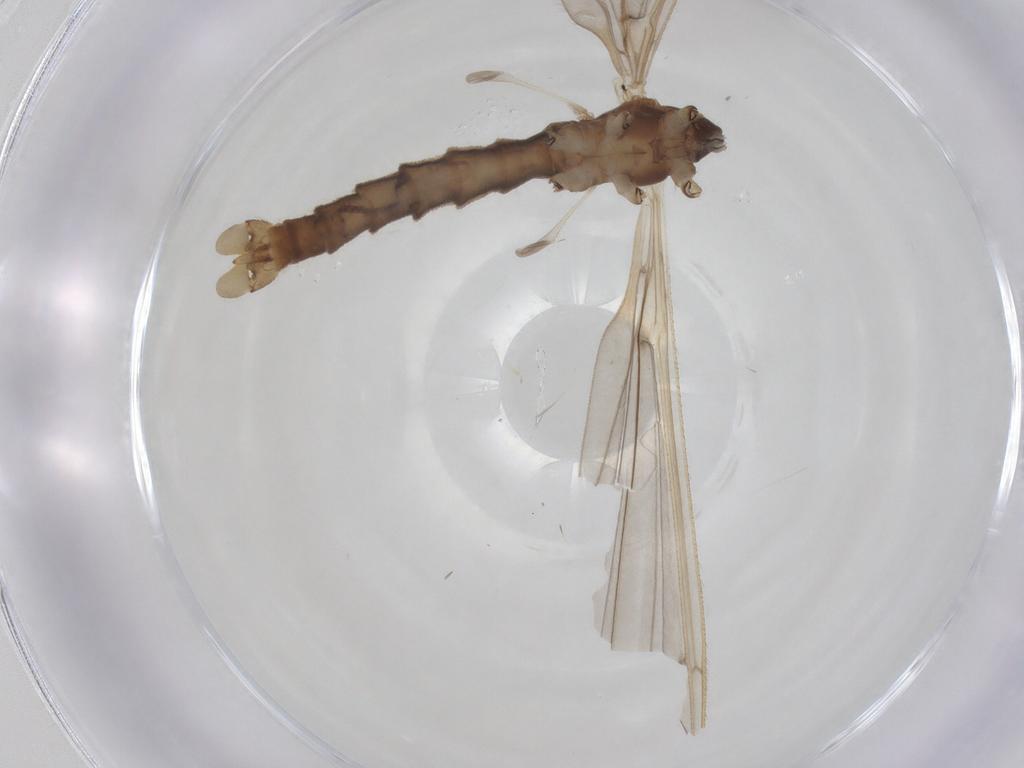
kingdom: Animalia
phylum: Arthropoda
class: Insecta
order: Diptera
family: Limoniidae
